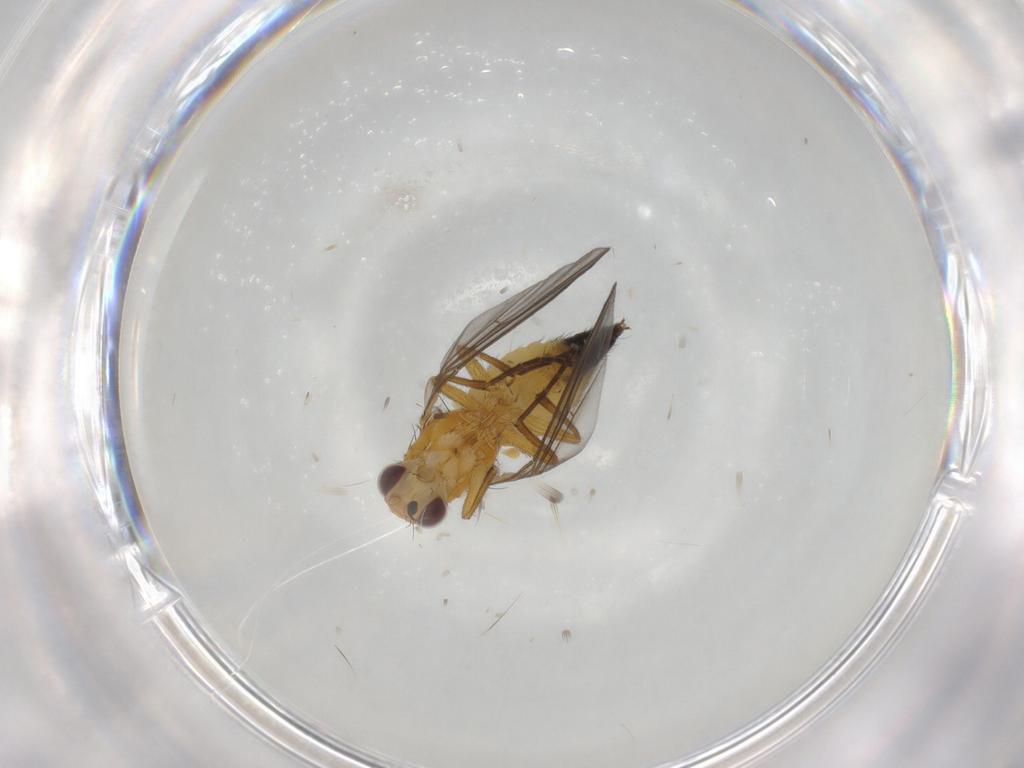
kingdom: Animalia
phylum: Arthropoda
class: Insecta
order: Diptera
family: Agromyzidae
